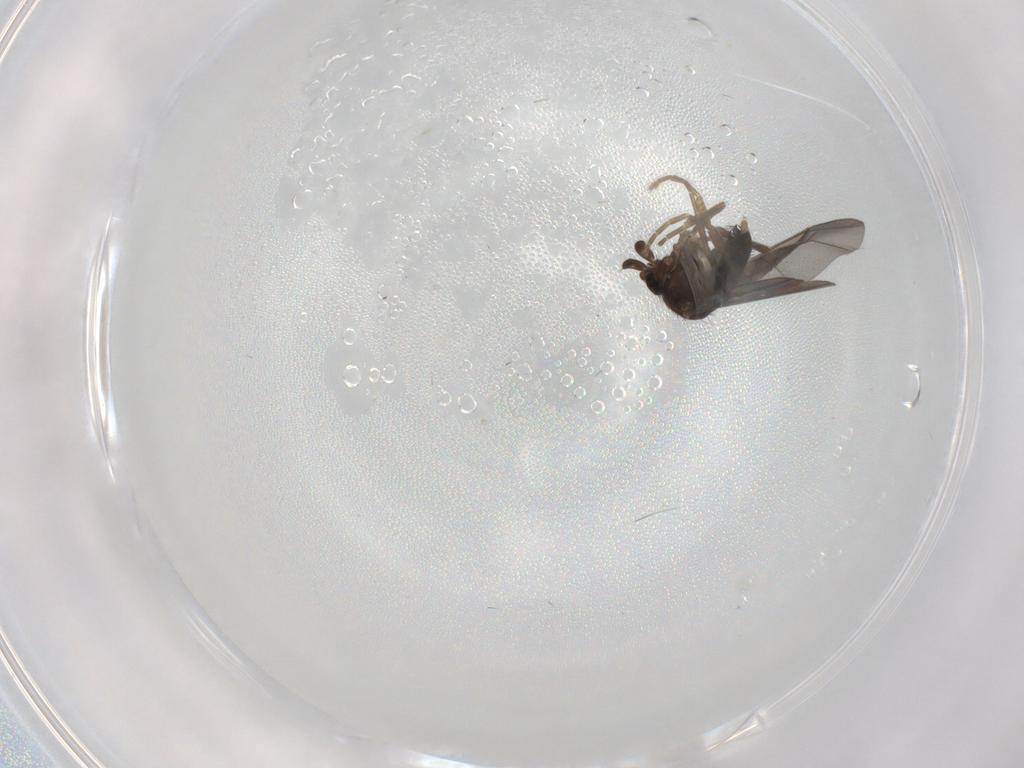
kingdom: Animalia
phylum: Arthropoda
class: Insecta
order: Diptera
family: Phoridae
